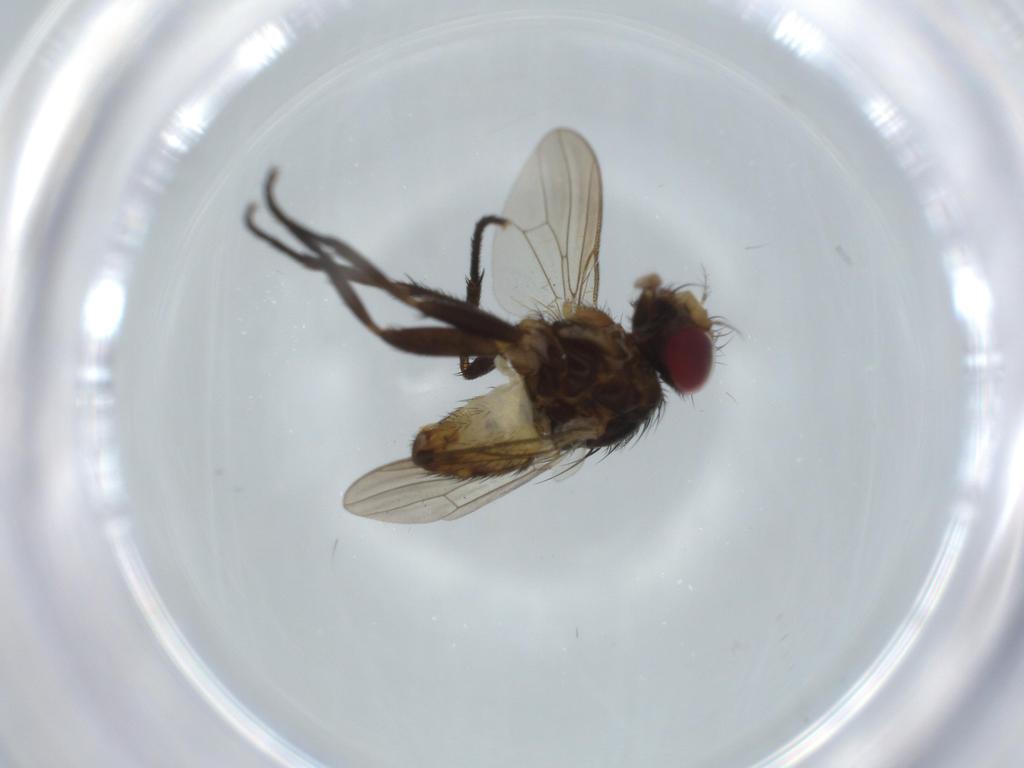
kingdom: Animalia
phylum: Arthropoda
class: Insecta
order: Diptera
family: Anthomyiidae
